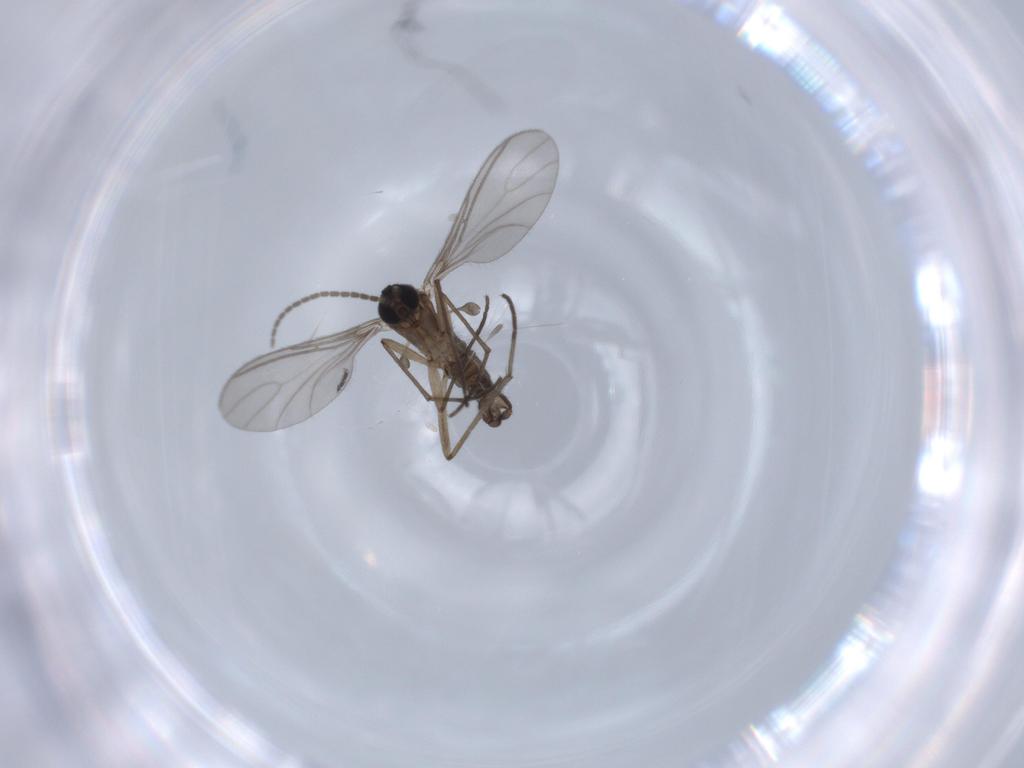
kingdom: Animalia
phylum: Arthropoda
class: Insecta
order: Diptera
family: Sciaridae
